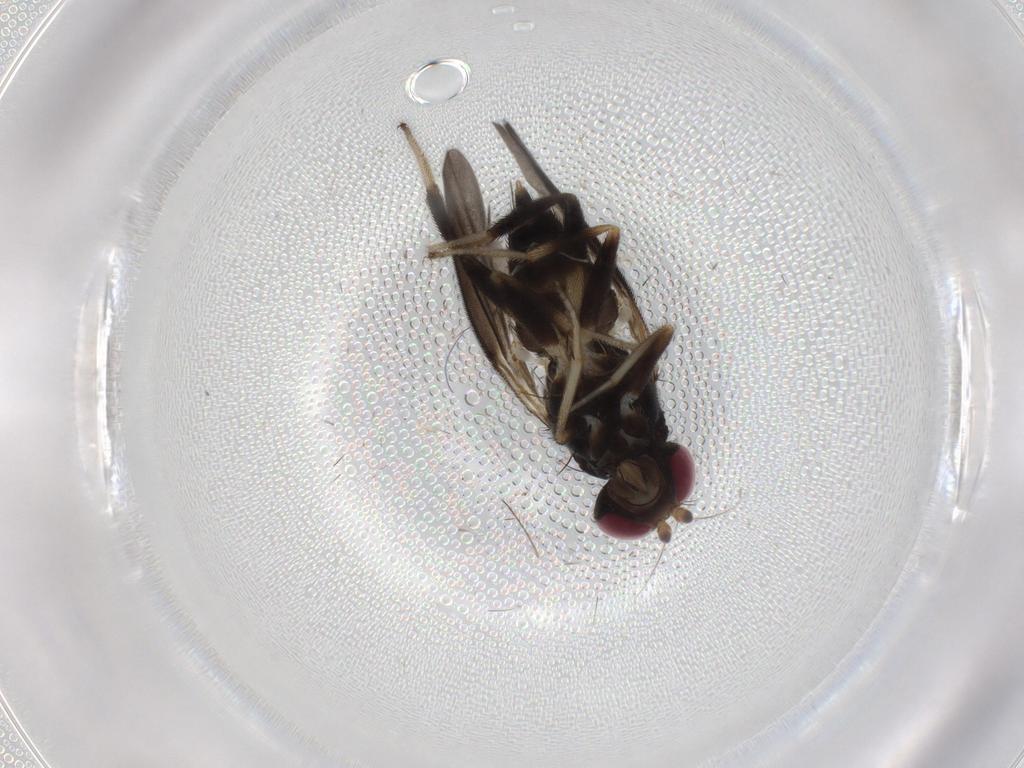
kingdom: Animalia
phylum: Arthropoda
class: Insecta
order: Diptera
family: Clusiidae
